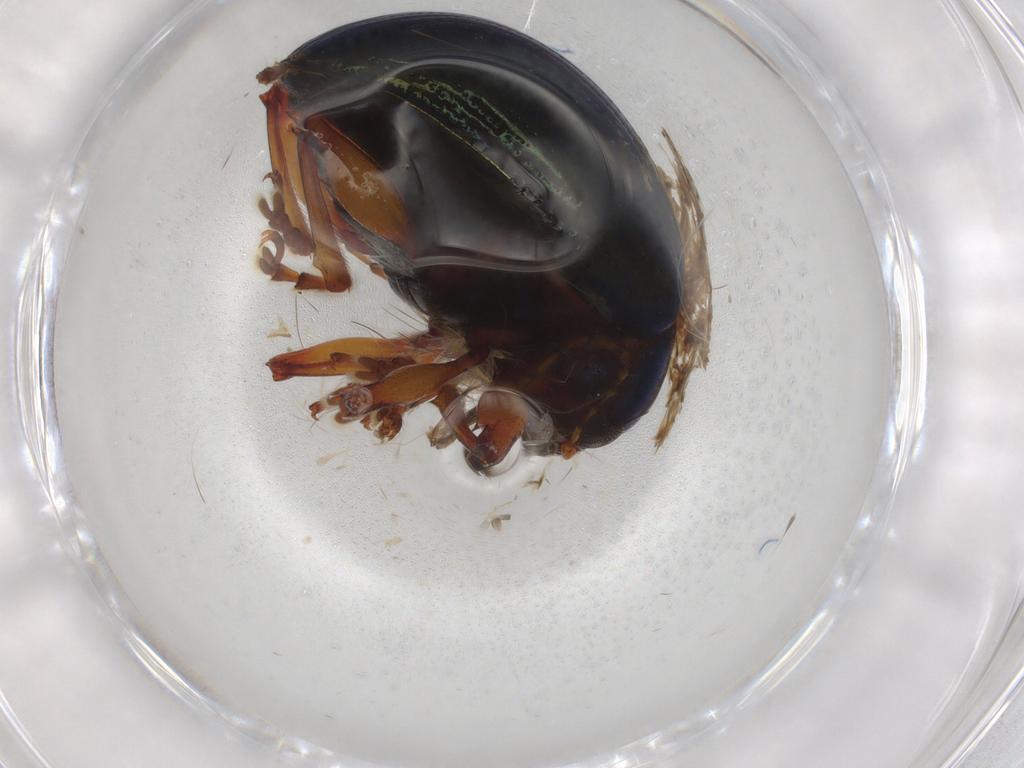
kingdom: Animalia
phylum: Arthropoda
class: Insecta
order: Coleoptera
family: Chrysomelidae
